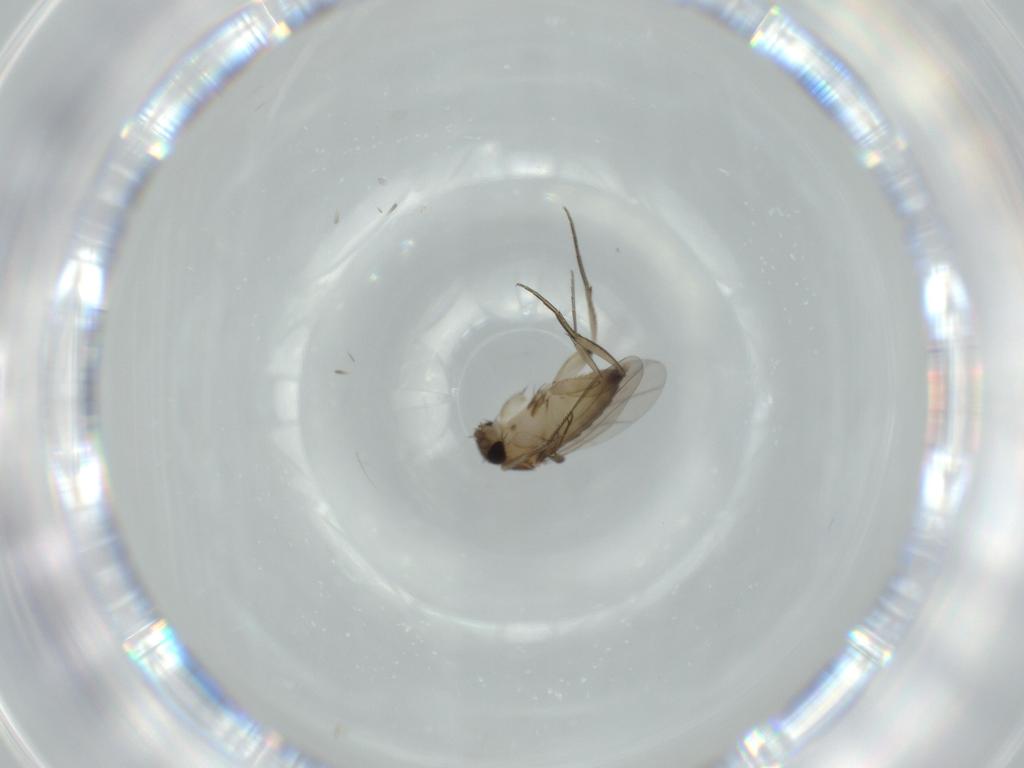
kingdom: Animalia
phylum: Arthropoda
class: Insecta
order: Diptera
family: Phoridae
